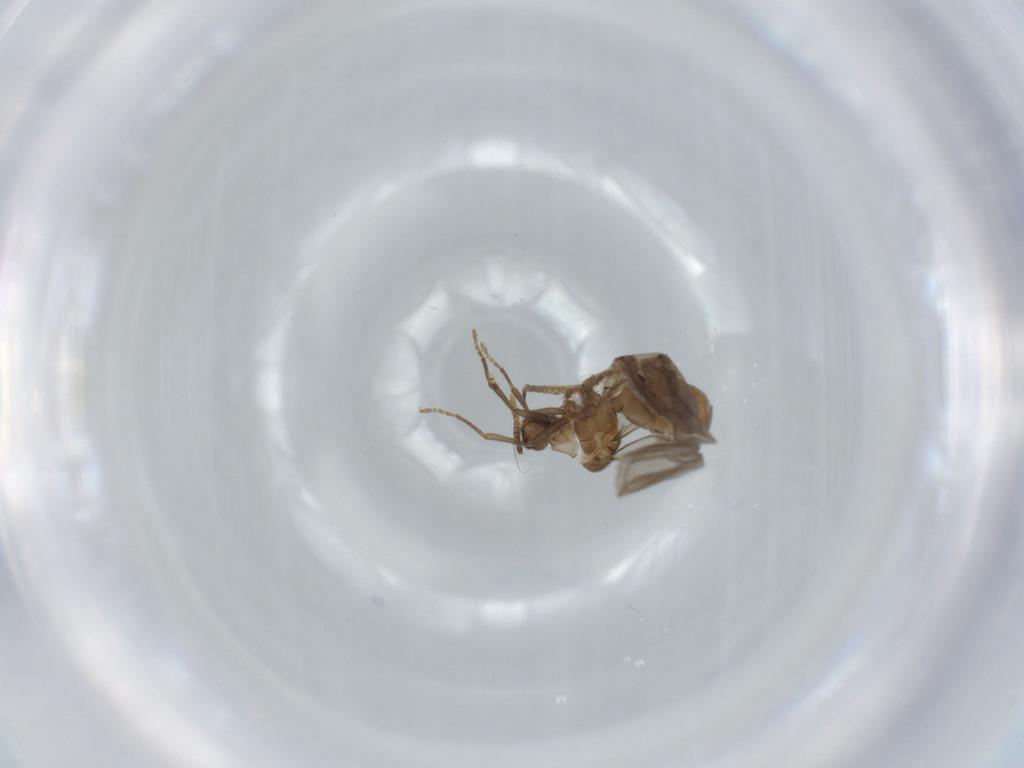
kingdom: Animalia
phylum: Arthropoda
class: Insecta
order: Hymenoptera
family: Formicidae
